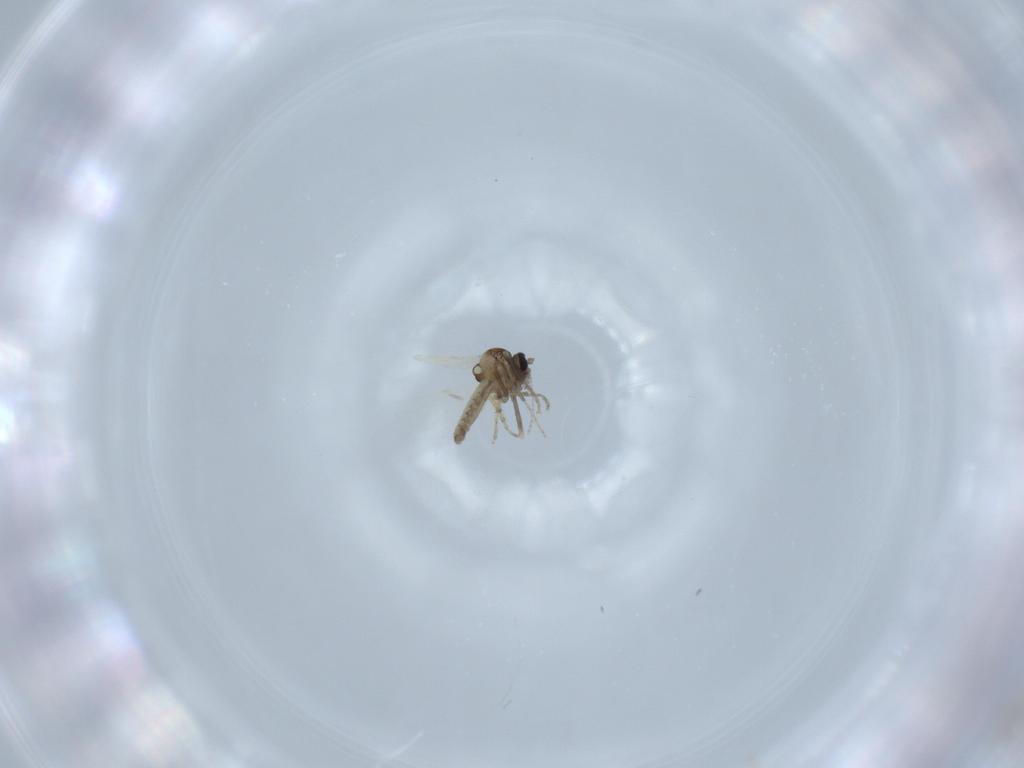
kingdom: Animalia
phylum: Arthropoda
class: Insecta
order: Diptera
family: Ceratopogonidae
